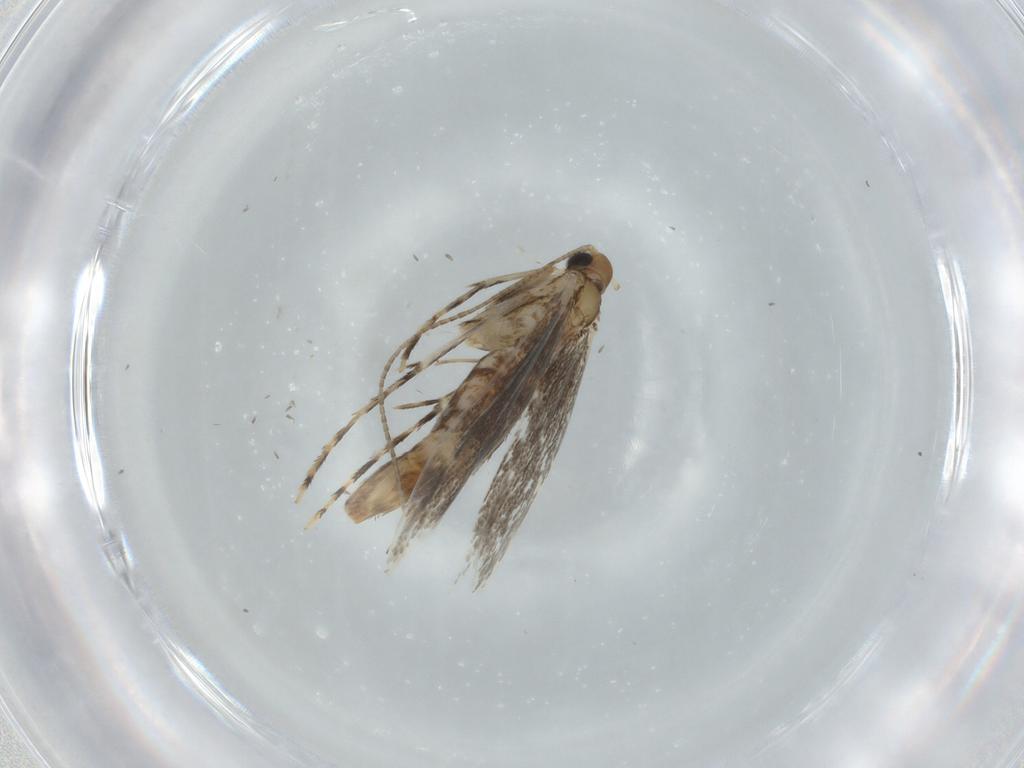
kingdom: Animalia
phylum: Arthropoda
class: Insecta
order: Lepidoptera
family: Gracillariidae
